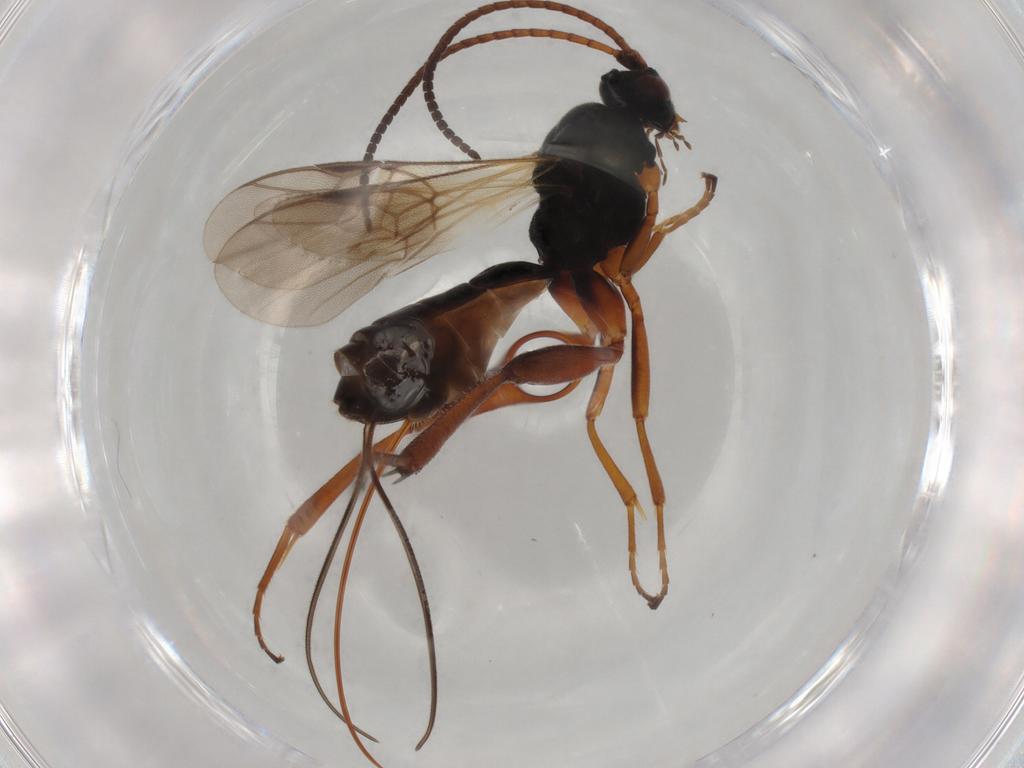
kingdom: Animalia
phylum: Arthropoda
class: Insecta
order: Hymenoptera
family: Braconidae
